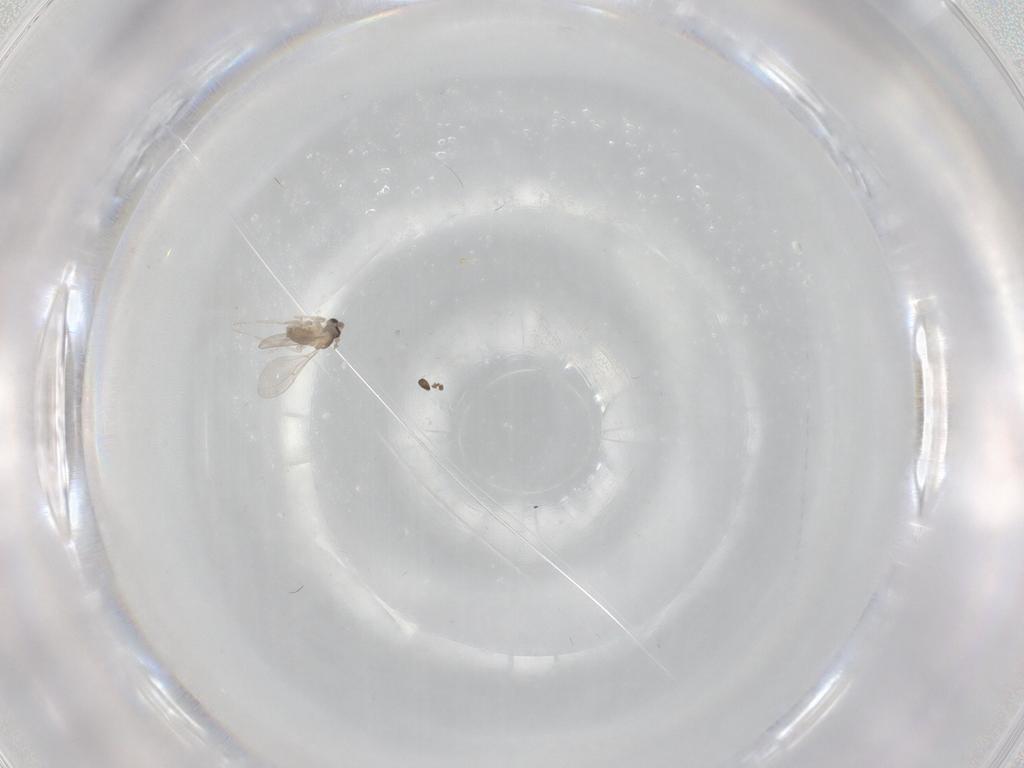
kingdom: Animalia
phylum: Arthropoda
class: Insecta
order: Diptera
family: Cecidomyiidae
